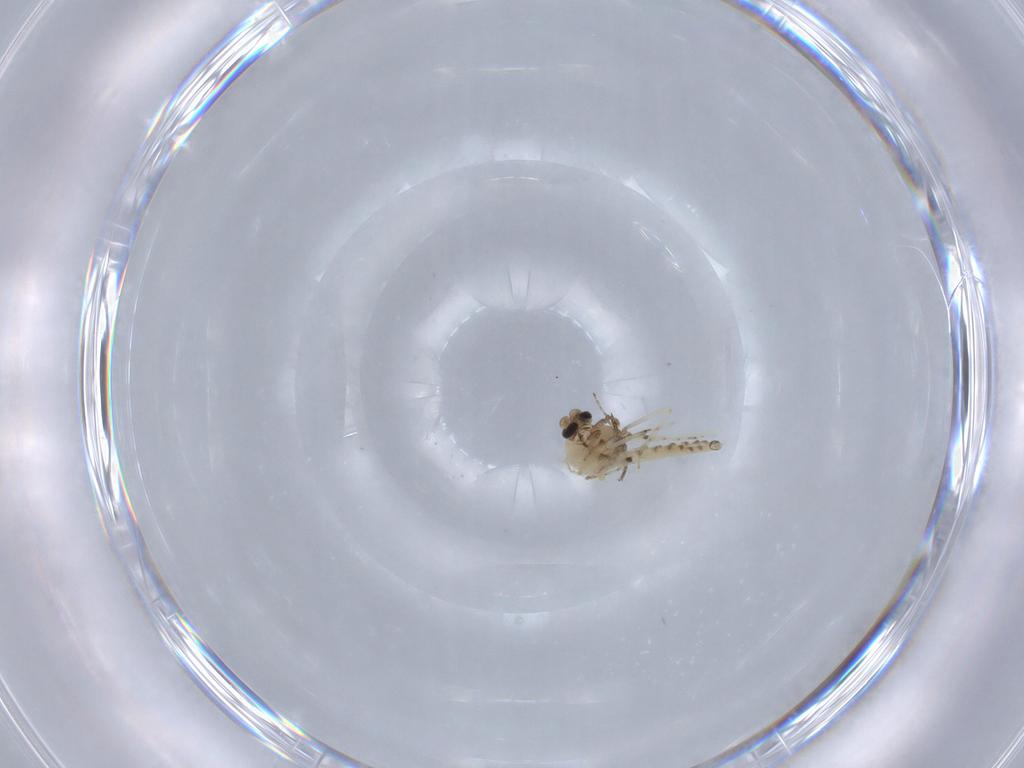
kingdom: Animalia
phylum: Arthropoda
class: Insecta
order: Diptera
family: Ceratopogonidae
